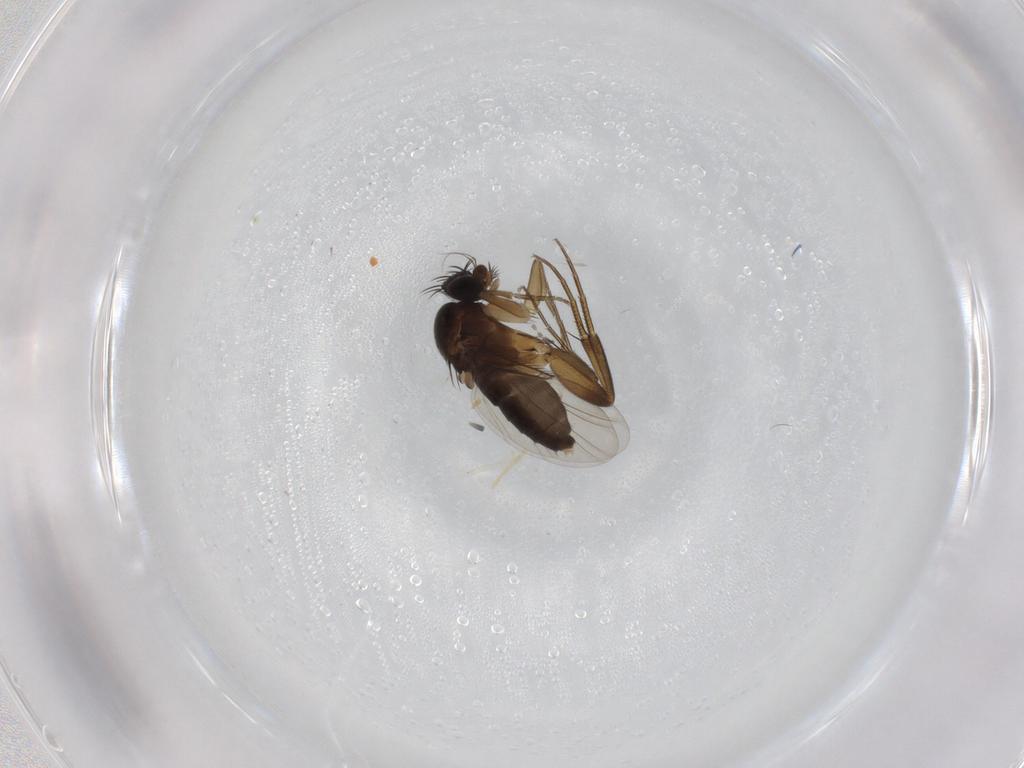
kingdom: Animalia
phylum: Arthropoda
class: Insecta
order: Diptera
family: Phoridae
